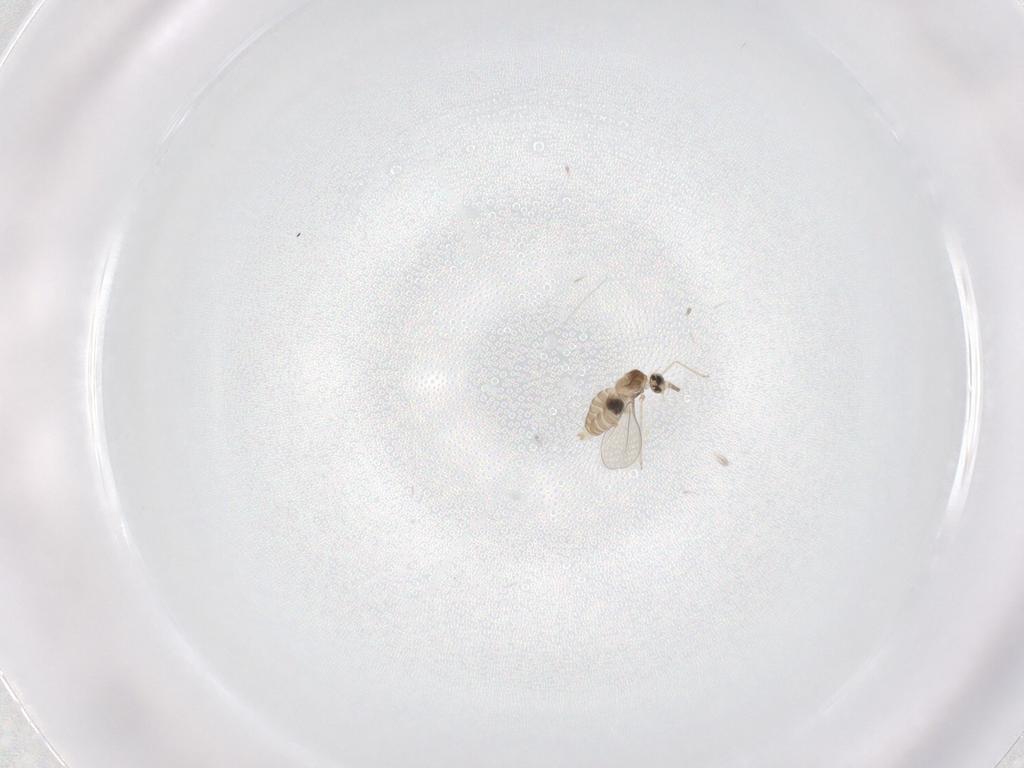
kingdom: Animalia
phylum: Arthropoda
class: Insecta
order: Diptera
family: Cecidomyiidae
